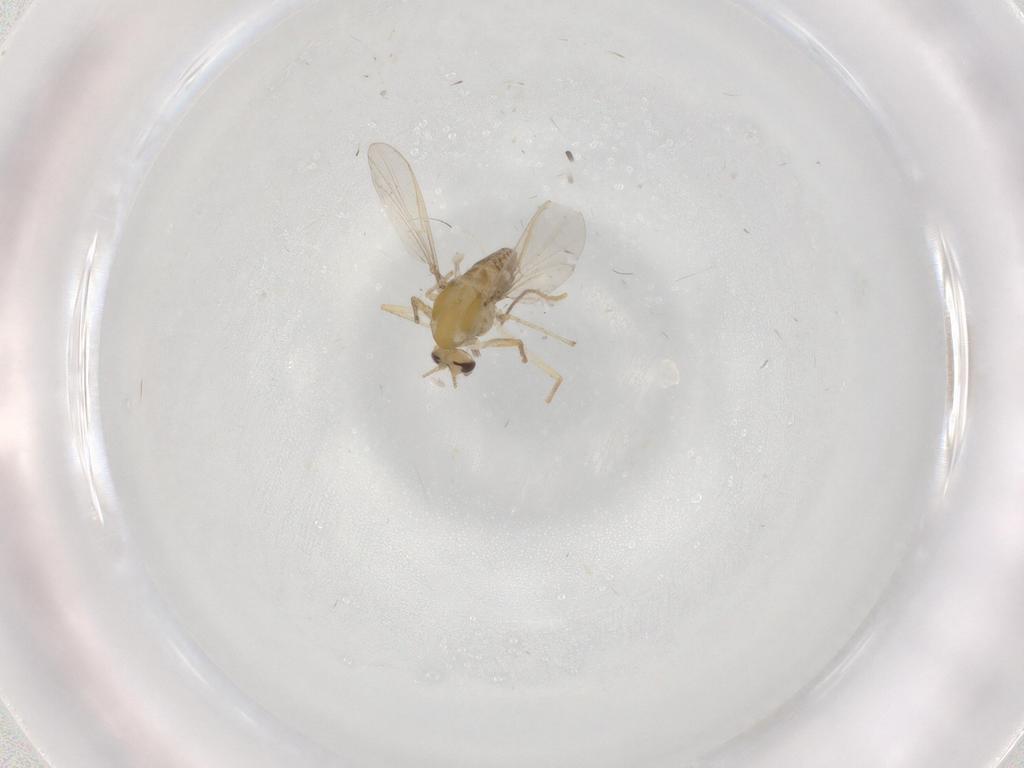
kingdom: Animalia
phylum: Arthropoda
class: Insecta
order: Diptera
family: Chironomidae
